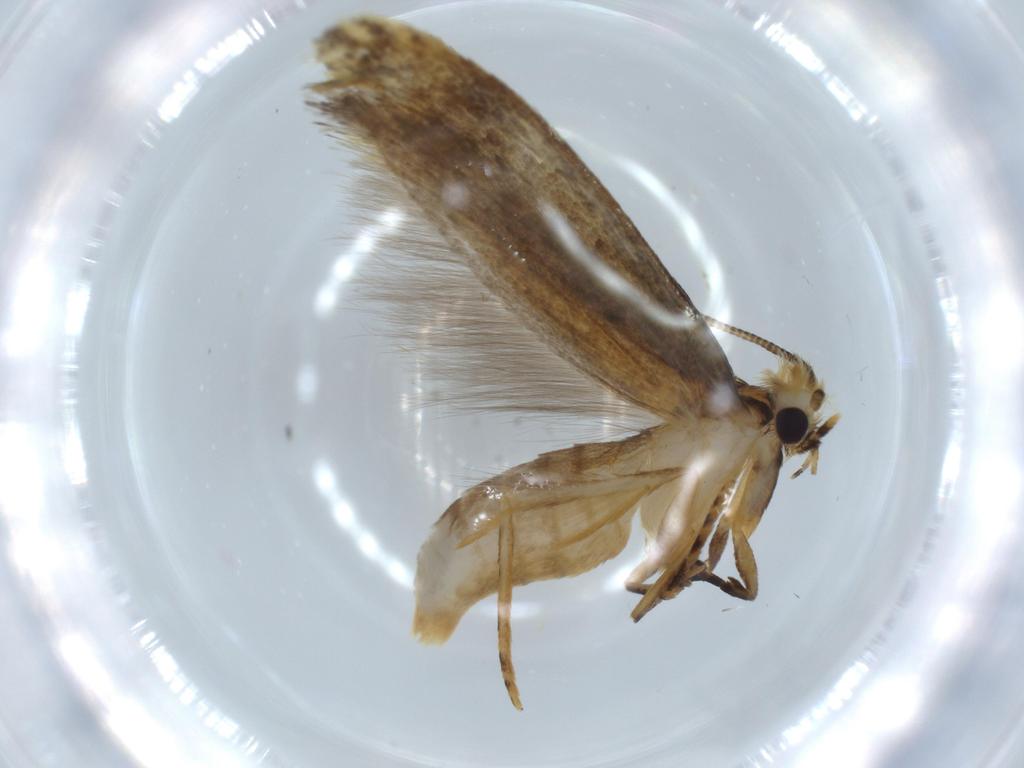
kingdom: Animalia
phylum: Arthropoda
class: Insecta
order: Lepidoptera
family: Tineidae
